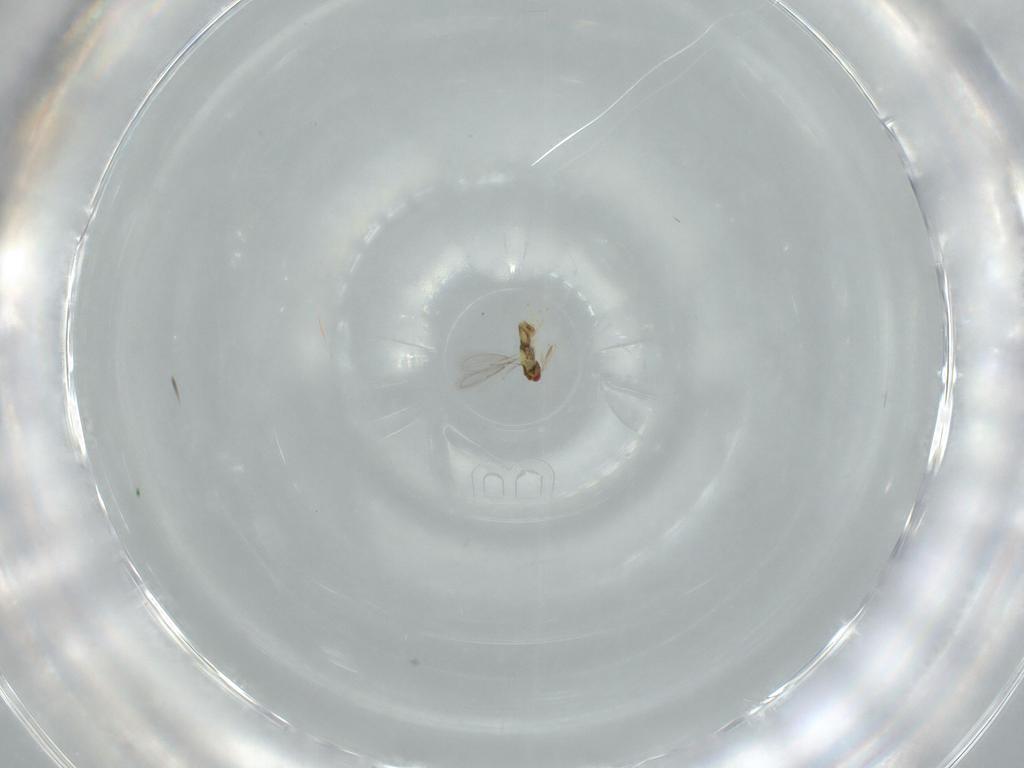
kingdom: Animalia
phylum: Arthropoda
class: Insecta
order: Hymenoptera
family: Aphelinidae
